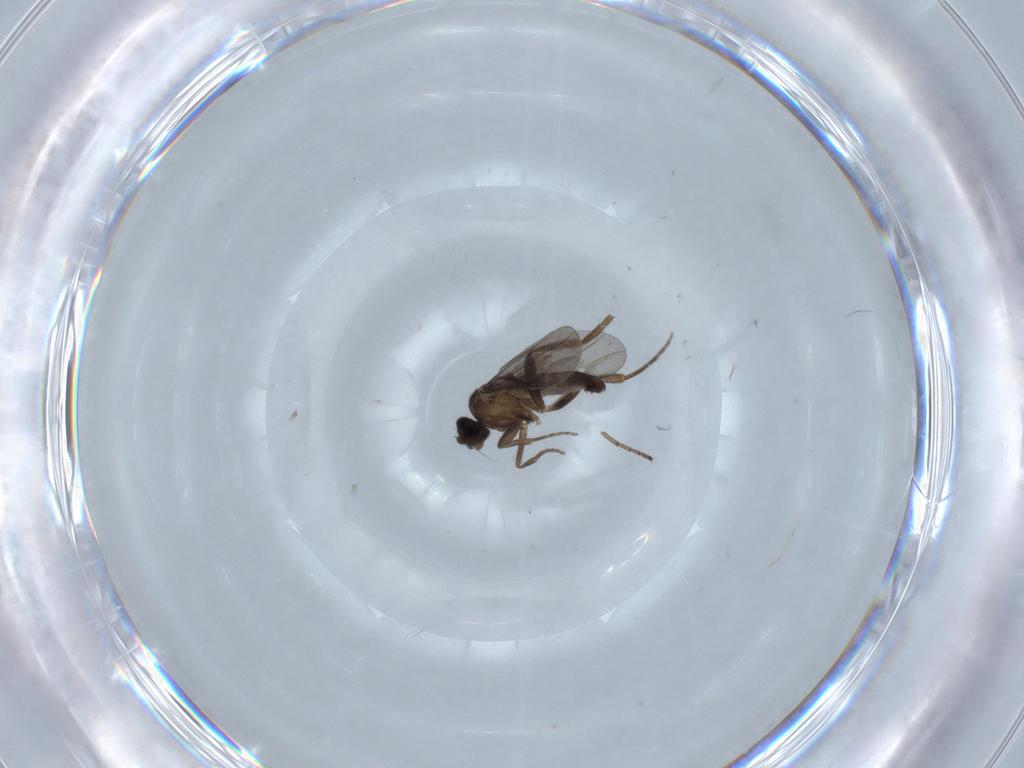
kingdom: Animalia
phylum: Arthropoda
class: Insecta
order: Diptera
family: Dolichopodidae
